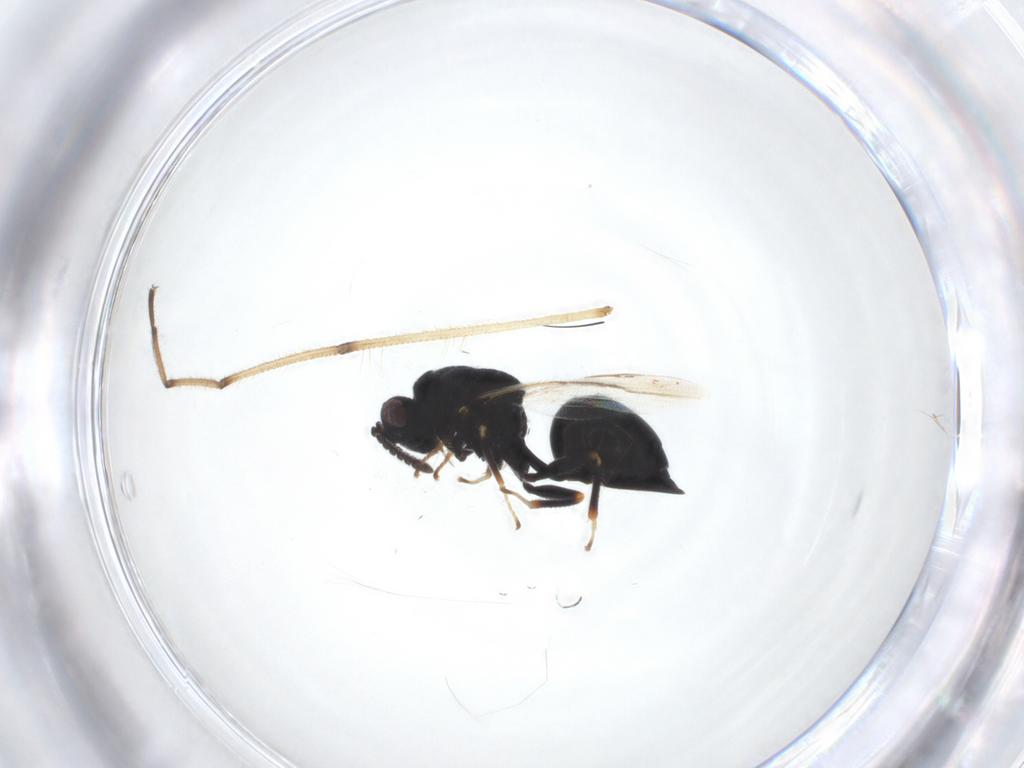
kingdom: Animalia
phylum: Arthropoda
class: Insecta
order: Hymenoptera
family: Eurytomidae
